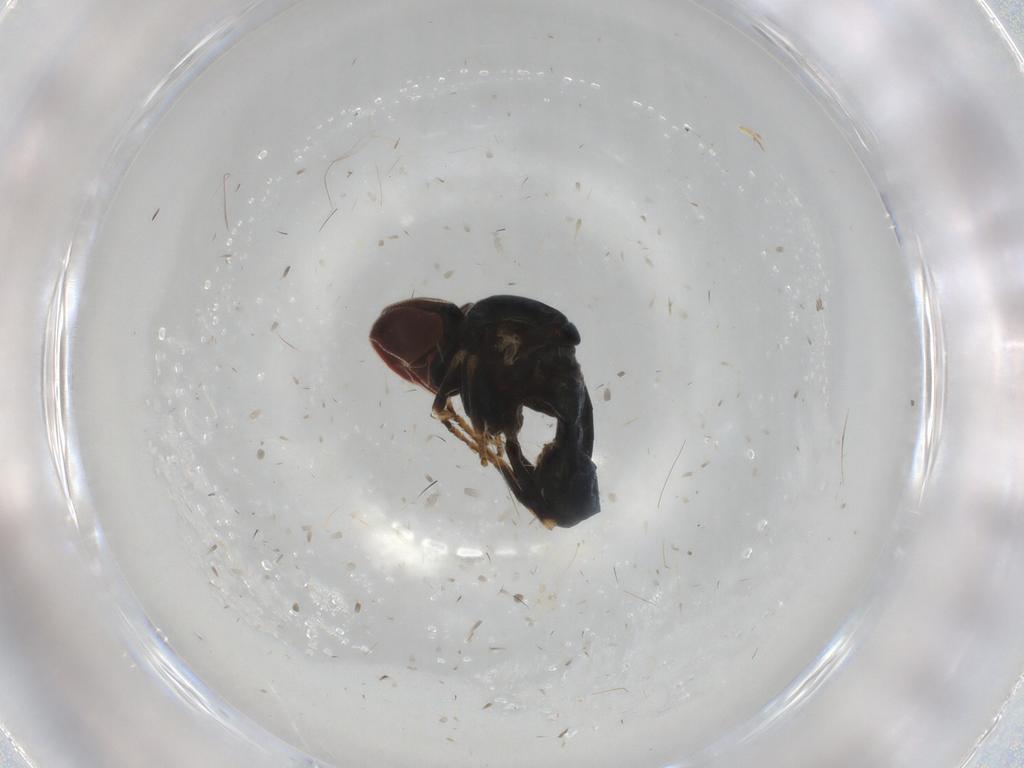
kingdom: Animalia
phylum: Arthropoda
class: Insecta
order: Diptera
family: Pipunculidae
